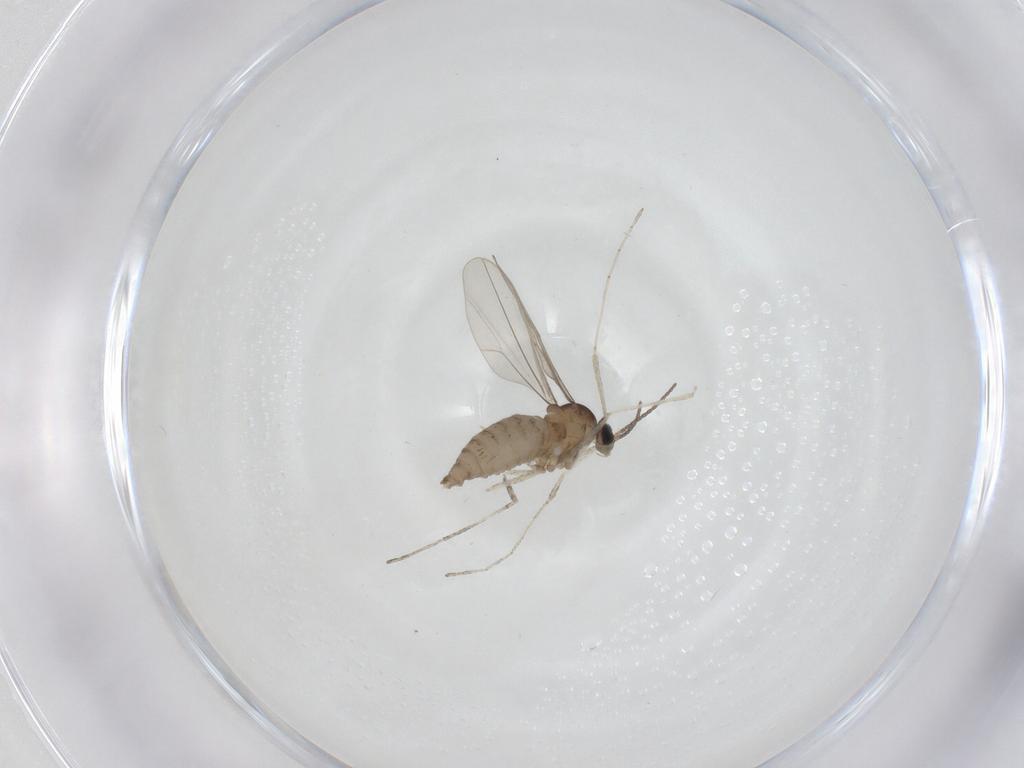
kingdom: Animalia
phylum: Arthropoda
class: Insecta
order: Diptera
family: Cecidomyiidae
